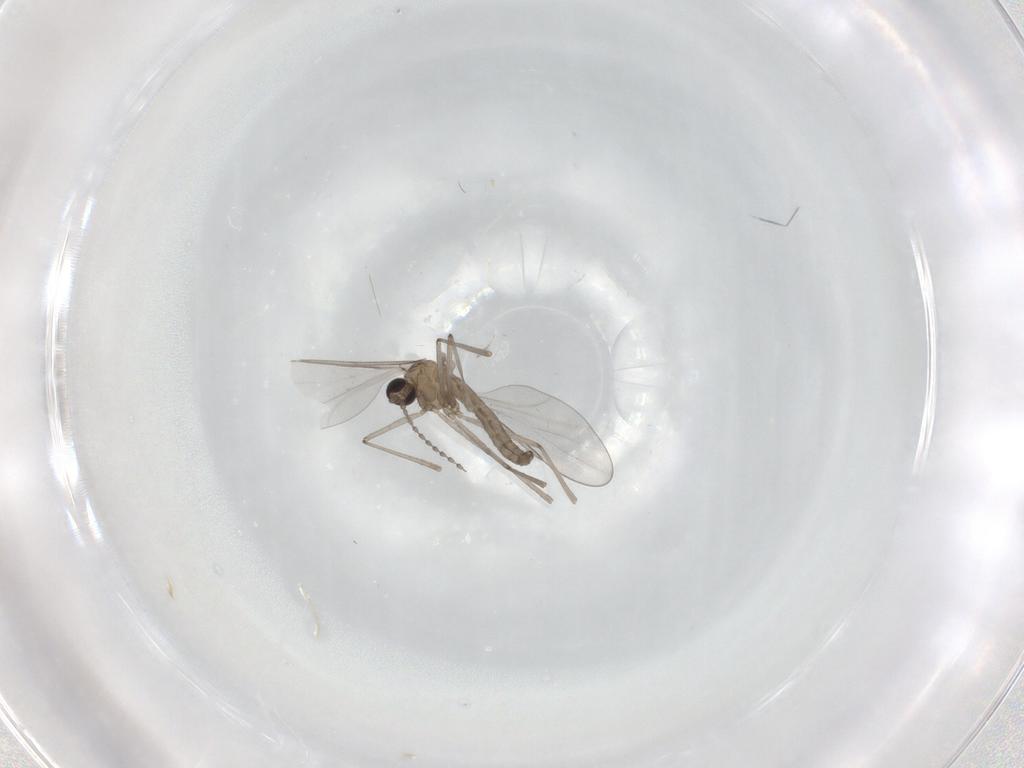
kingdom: Animalia
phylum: Arthropoda
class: Insecta
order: Diptera
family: Sciaridae
